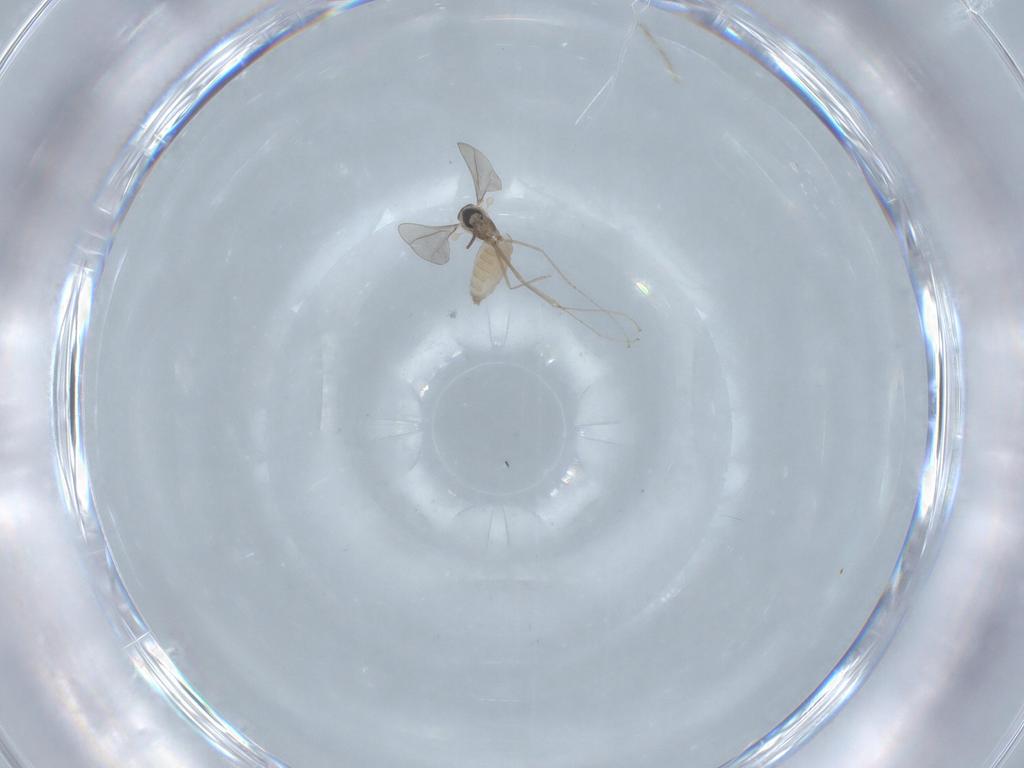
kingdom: Animalia
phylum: Arthropoda
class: Insecta
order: Diptera
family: Cecidomyiidae
